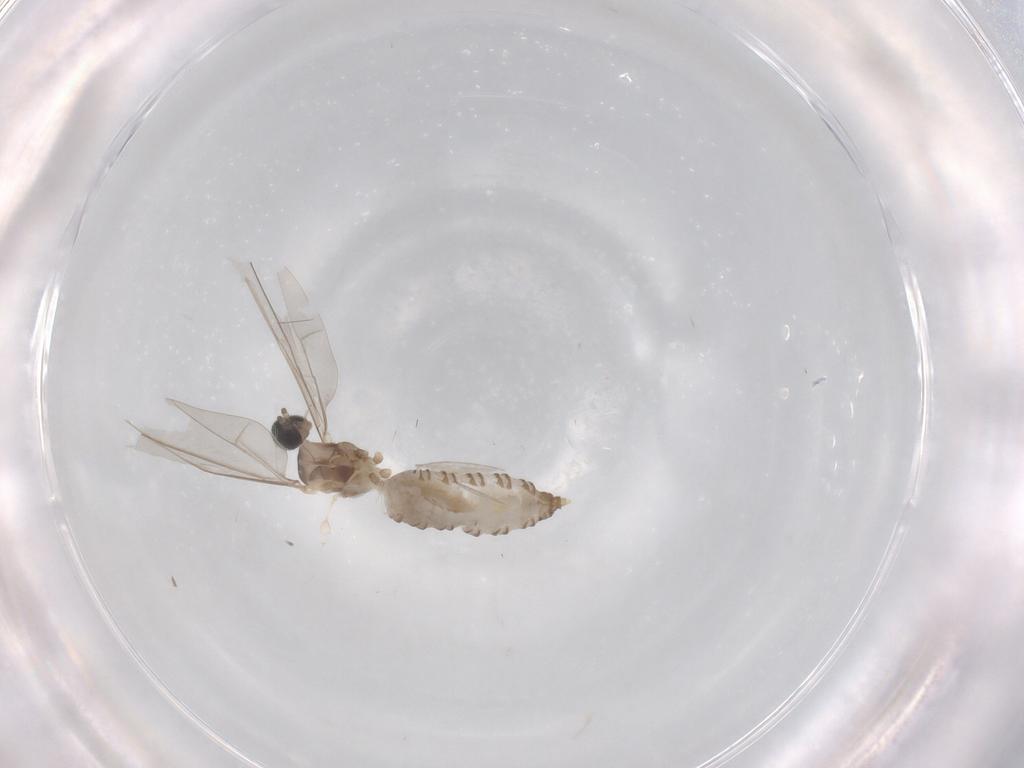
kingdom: Animalia
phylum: Arthropoda
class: Insecta
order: Diptera
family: Cecidomyiidae
